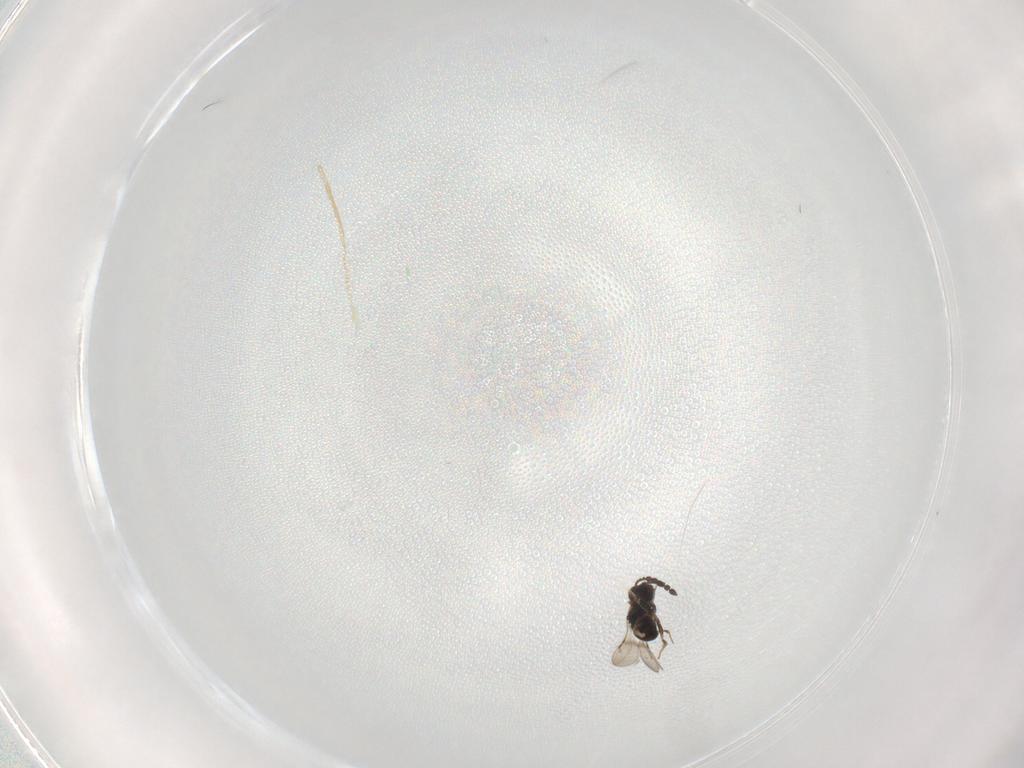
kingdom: Animalia
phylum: Arthropoda
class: Insecta
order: Hymenoptera
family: Ceraphronidae
